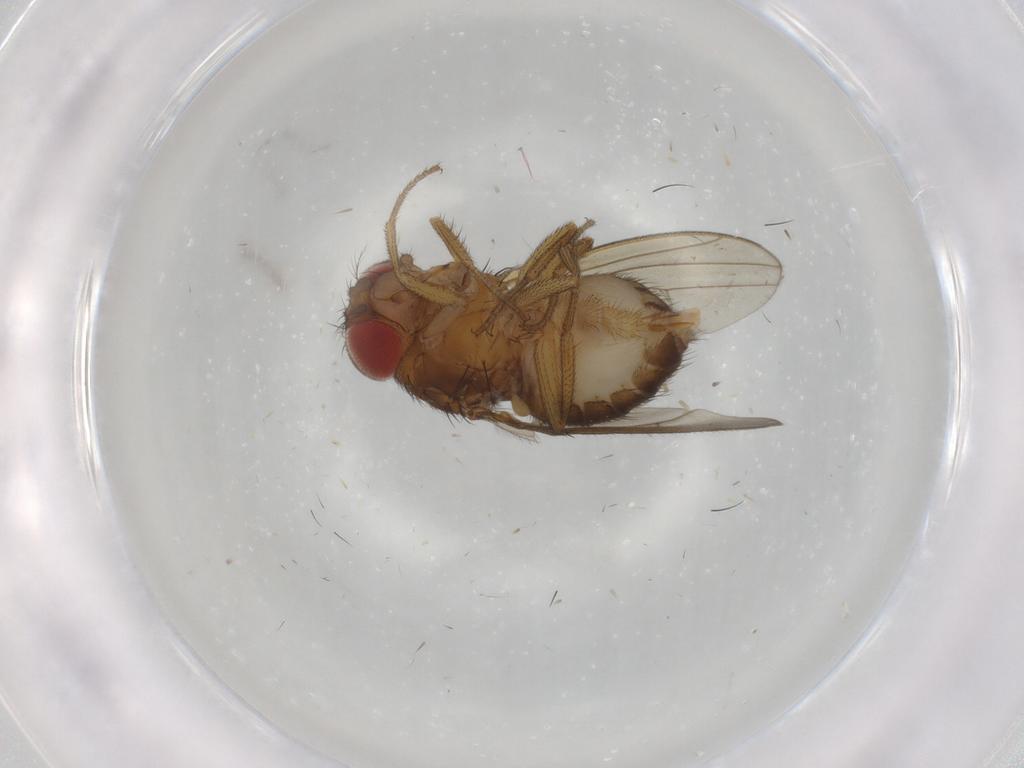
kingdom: Animalia
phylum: Arthropoda
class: Insecta
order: Diptera
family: Drosophilidae
